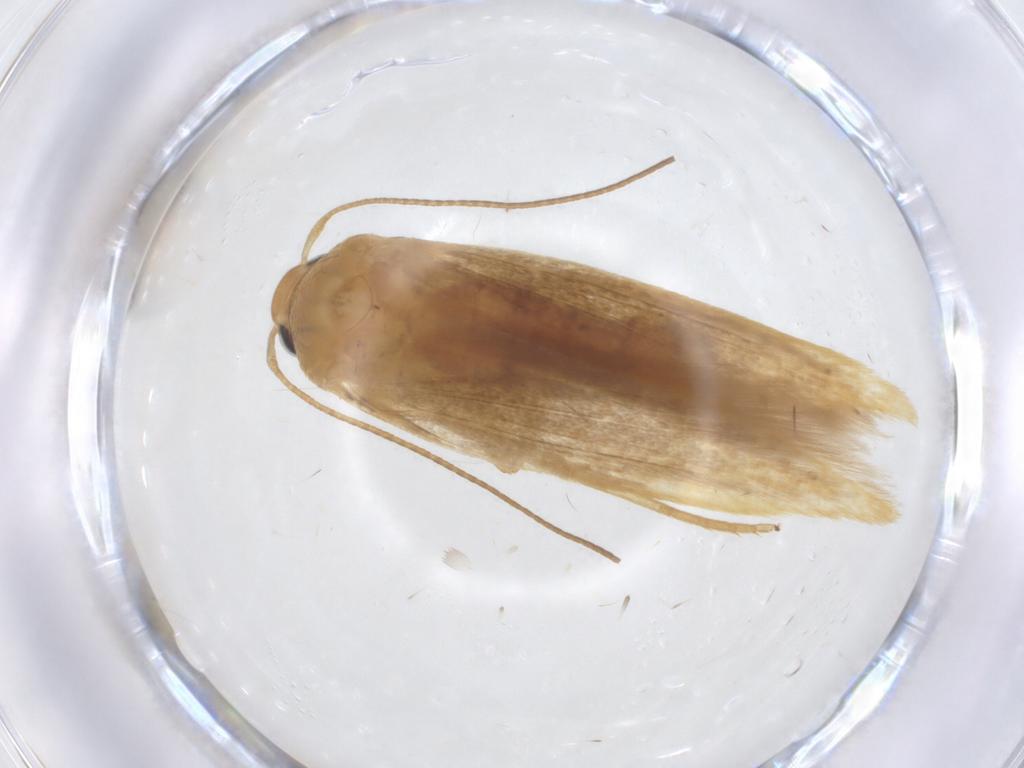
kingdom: Animalia
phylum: Arthropoda
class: Insecta
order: Lepidoptera
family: Stathmopodidae
